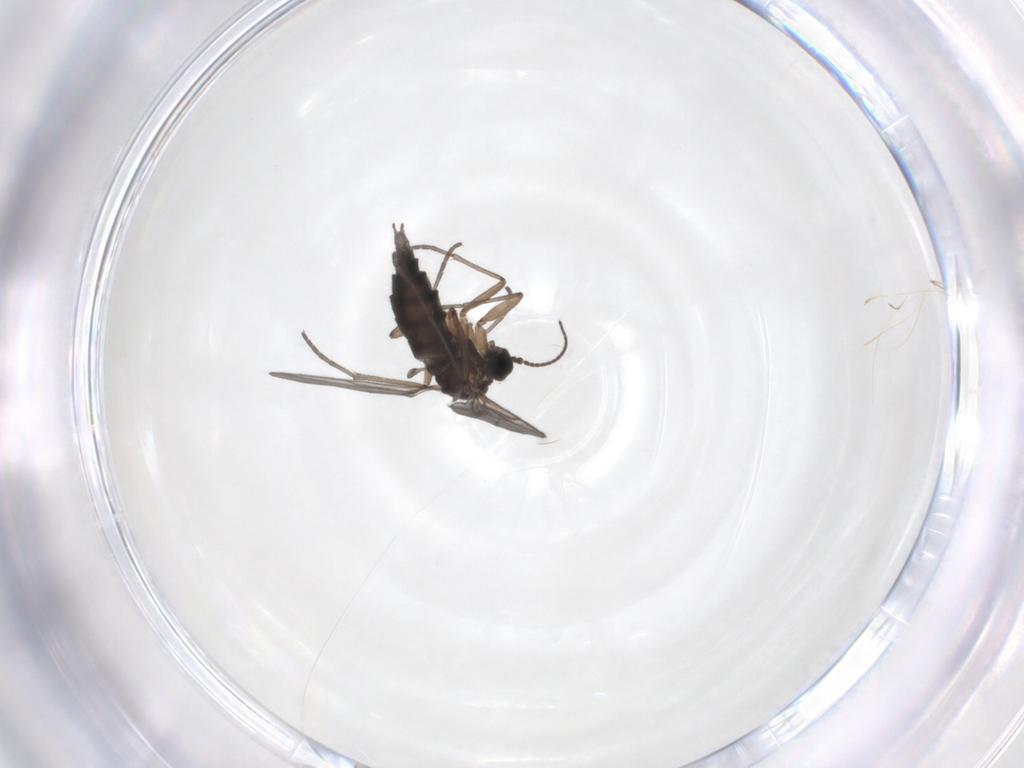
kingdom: Animalia
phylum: Arthropoda
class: Insecta
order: Diptera
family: Sciaridae
